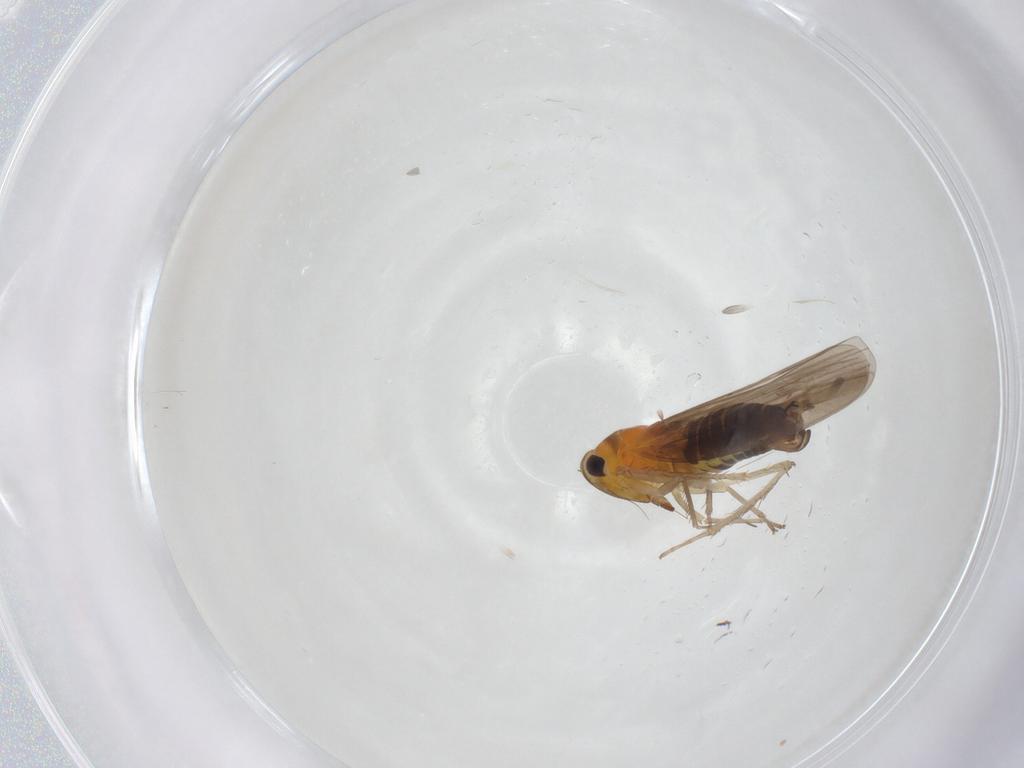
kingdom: Animalia
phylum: Arthropoda
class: Insecta
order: Hemiptera
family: Cicadellidae
